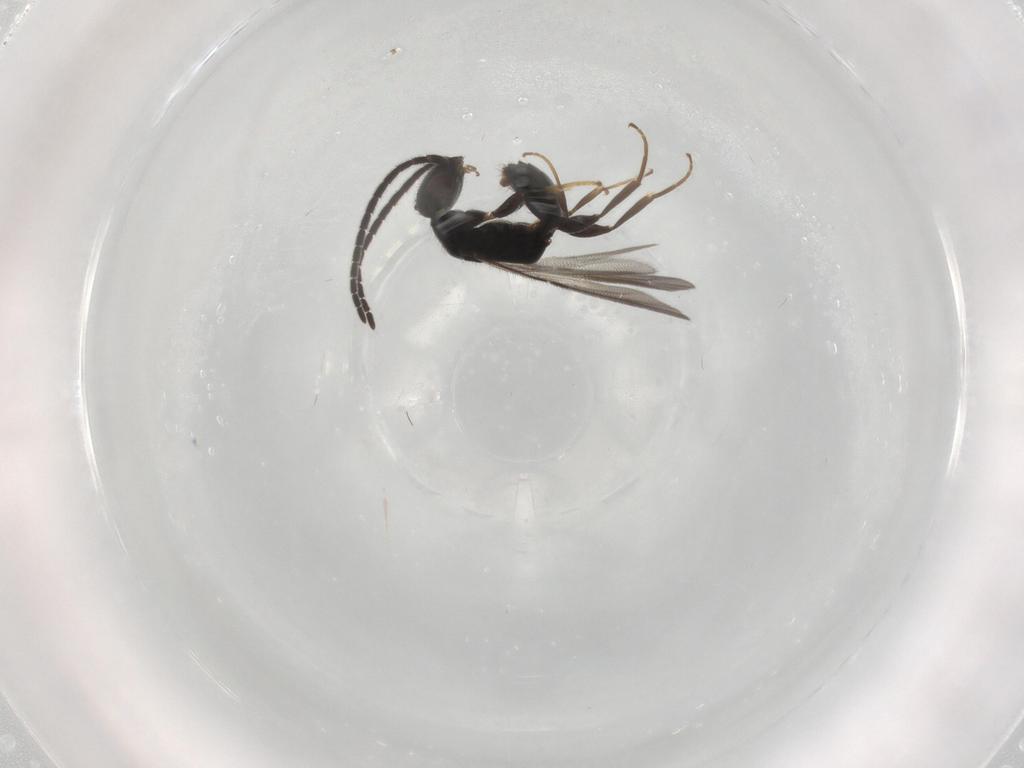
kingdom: Animalia
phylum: Arthropoda
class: Insecta
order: Hymenoptera
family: Bethylidae
